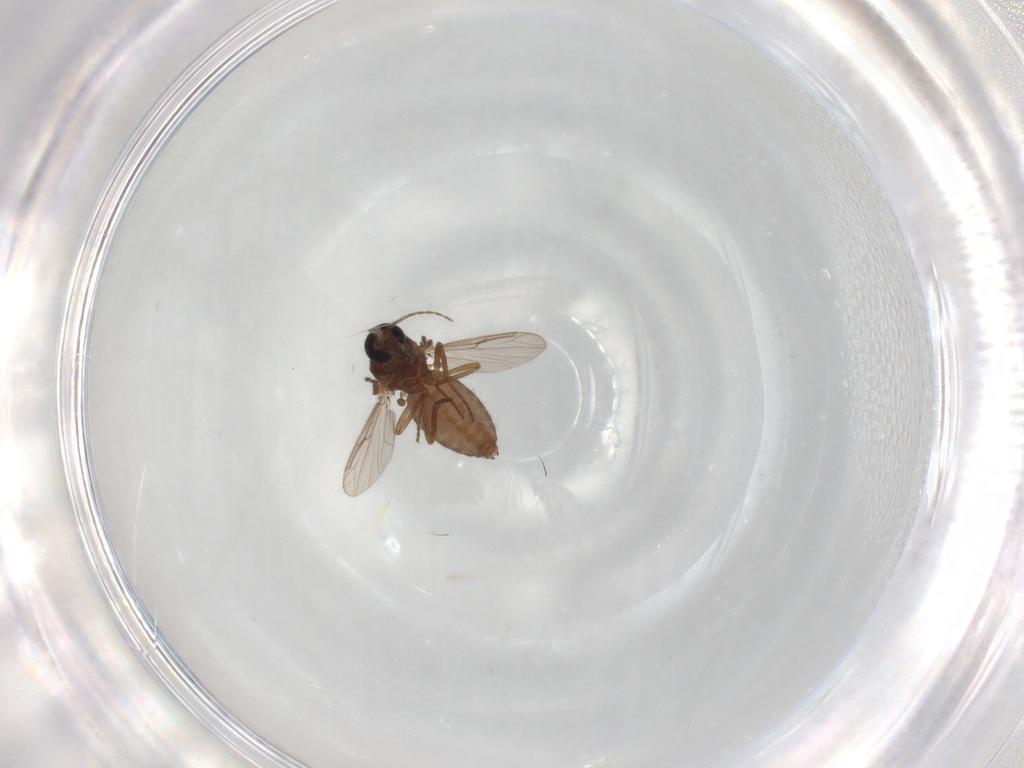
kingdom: Animalia
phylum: Arthropoda
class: Insecta
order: Diptera
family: Ceratopogonidae
